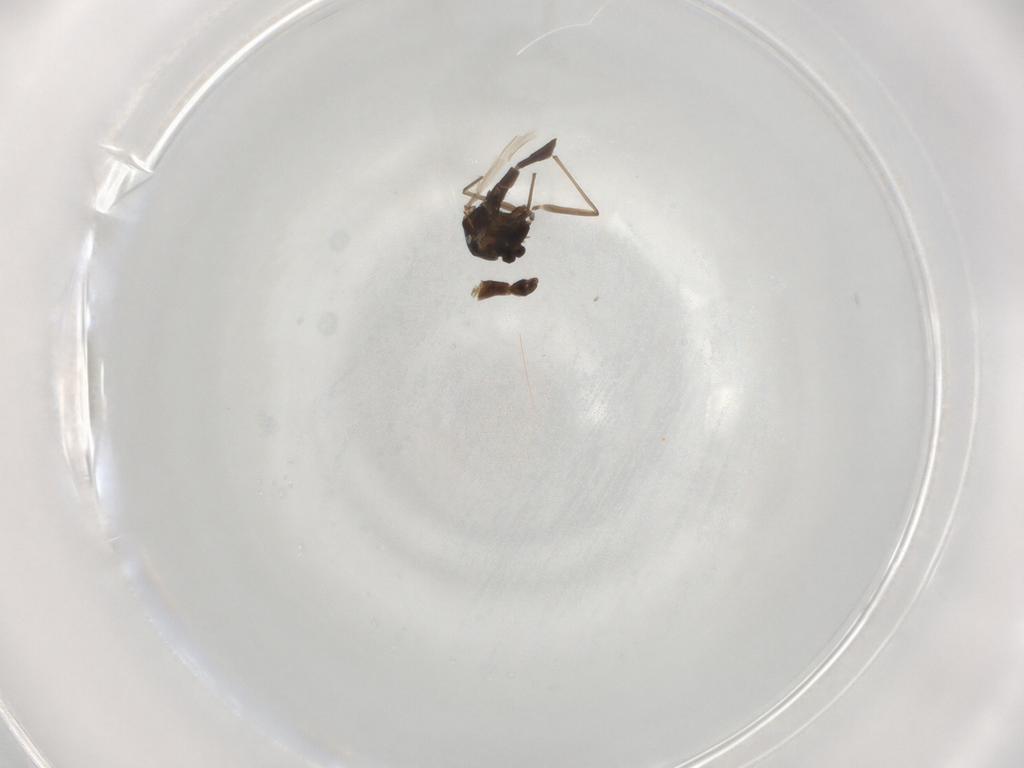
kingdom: Animalia
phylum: Arthropoda
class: Insecta
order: Diptera
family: Chironomidae
